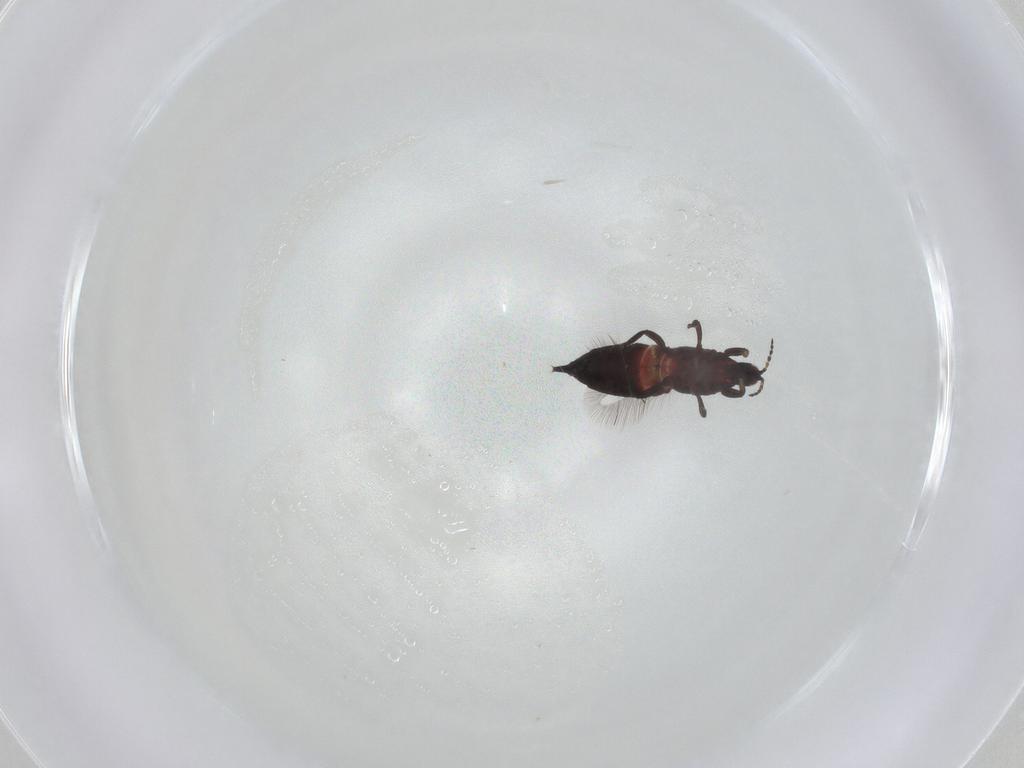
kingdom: Animalia
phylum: Arthropoda
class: Insecta
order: Thysanoptera
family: Phlaeothripidae
